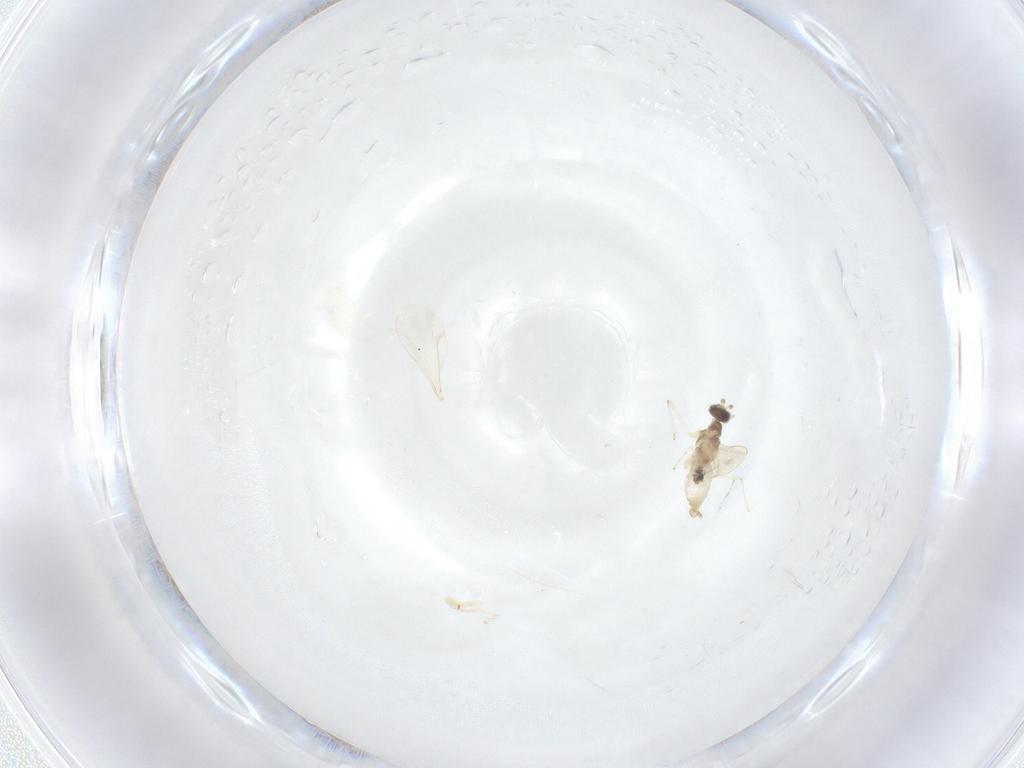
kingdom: Animalia
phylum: Arthropoda
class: Insecta
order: Diptera
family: Cecidomyiidae
